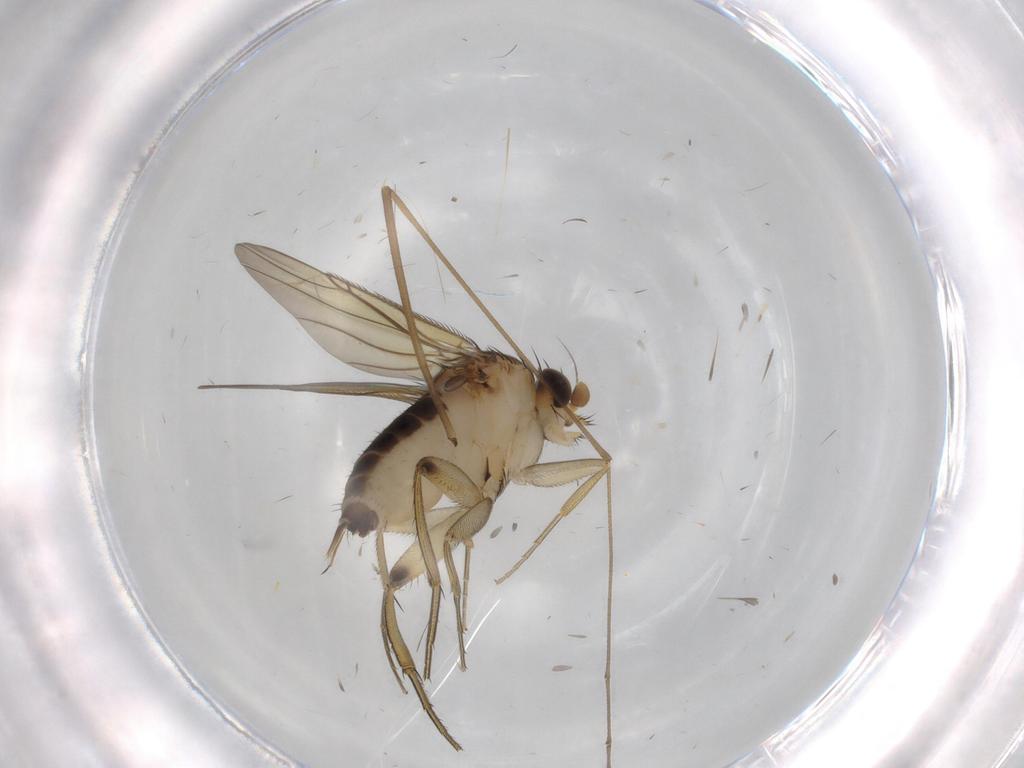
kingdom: Animalia
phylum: Arthropoda
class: Insecta
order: Diptera
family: Limoniidae
